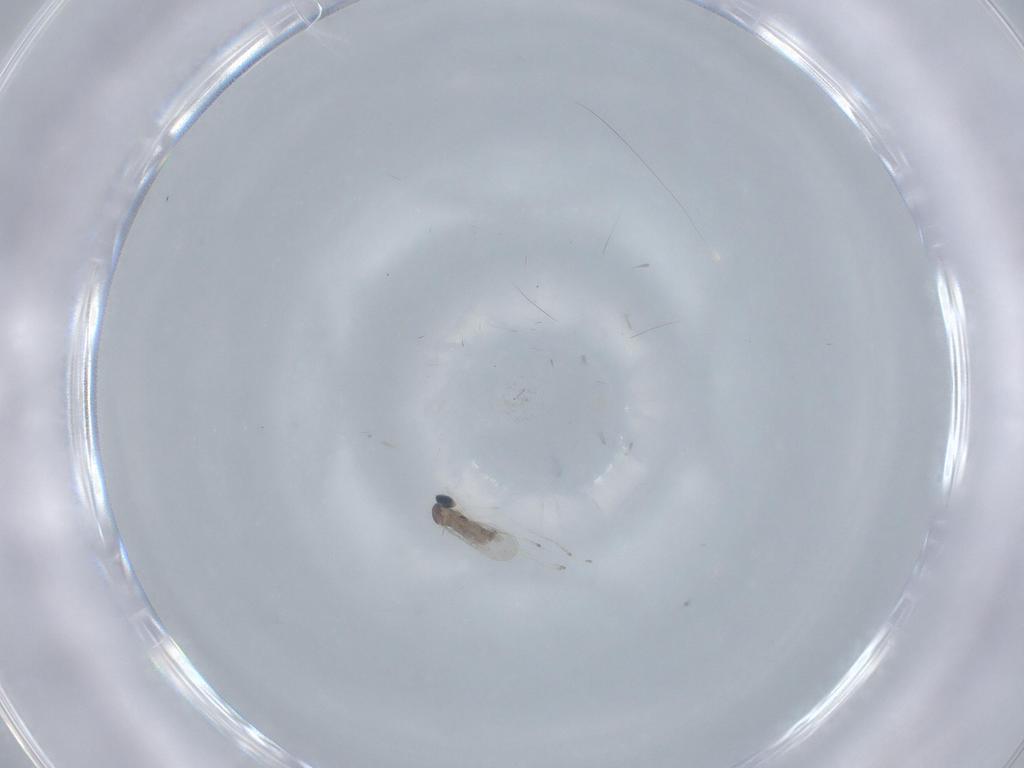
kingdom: Animalia
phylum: Arthropoda
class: Insecta
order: Diptera
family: Cecidomyiidae
